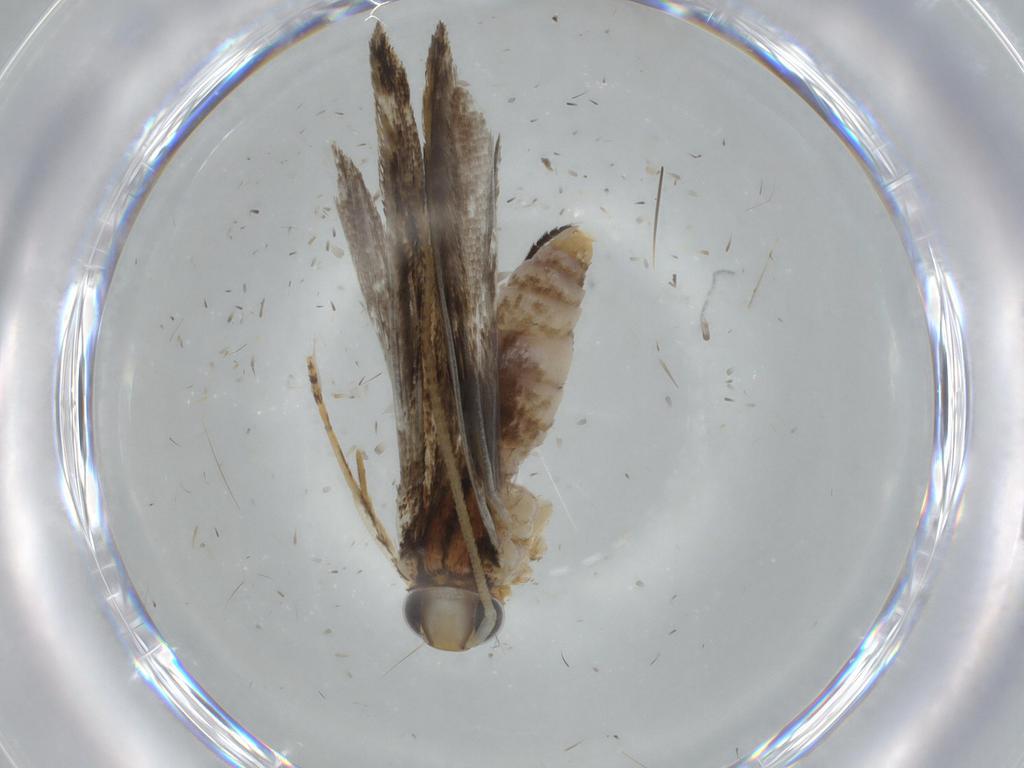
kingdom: Animalia
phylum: Arthropoda
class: Insecta
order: Lepidoptera
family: Gelechiidae
